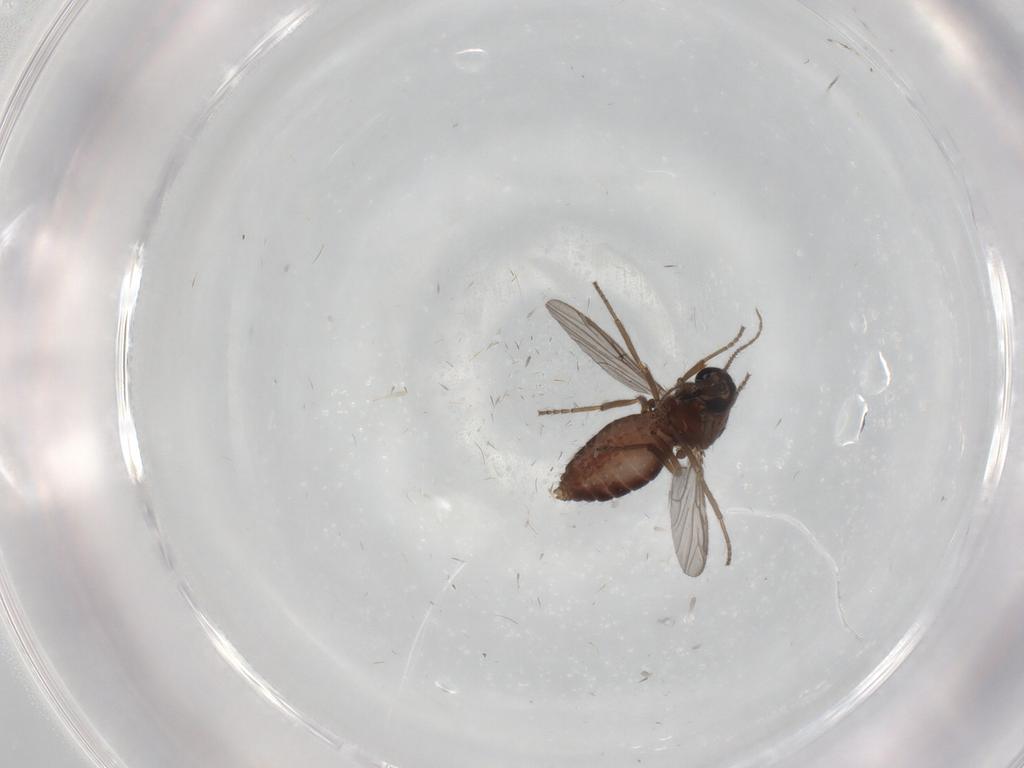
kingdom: Animalia
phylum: Arthropoda
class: Insecta
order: Diptera
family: Ceratopogonidae
